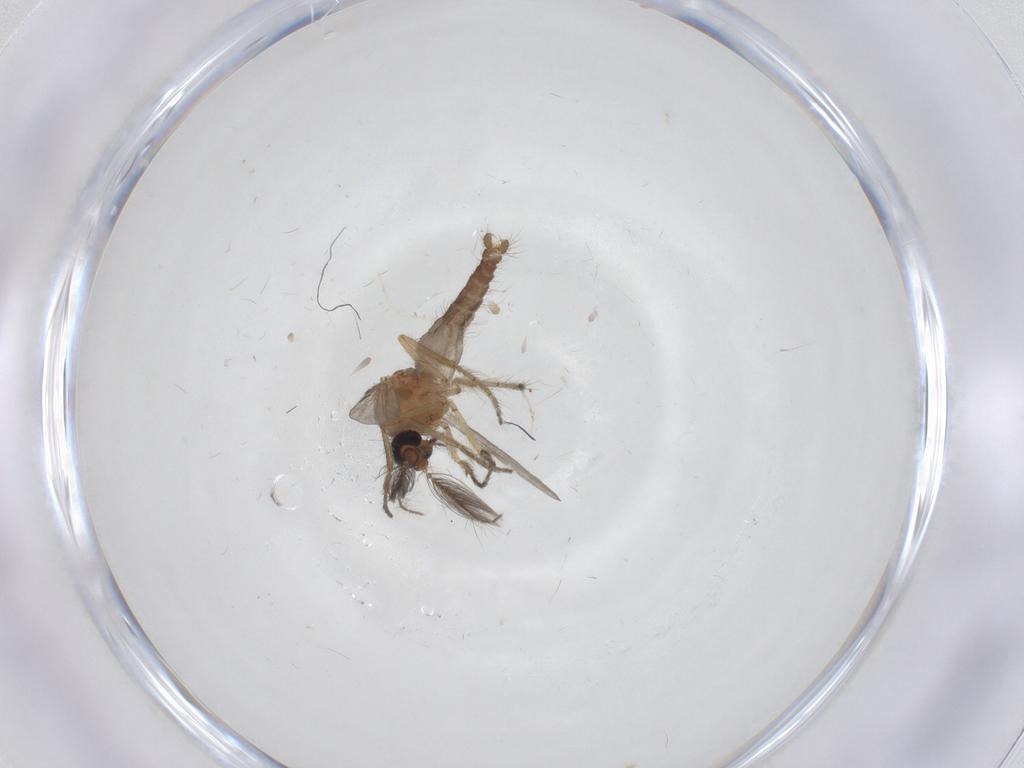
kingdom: Animalia
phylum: Arthropoda
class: Insecta
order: Diptera
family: Ceratopogonidae
